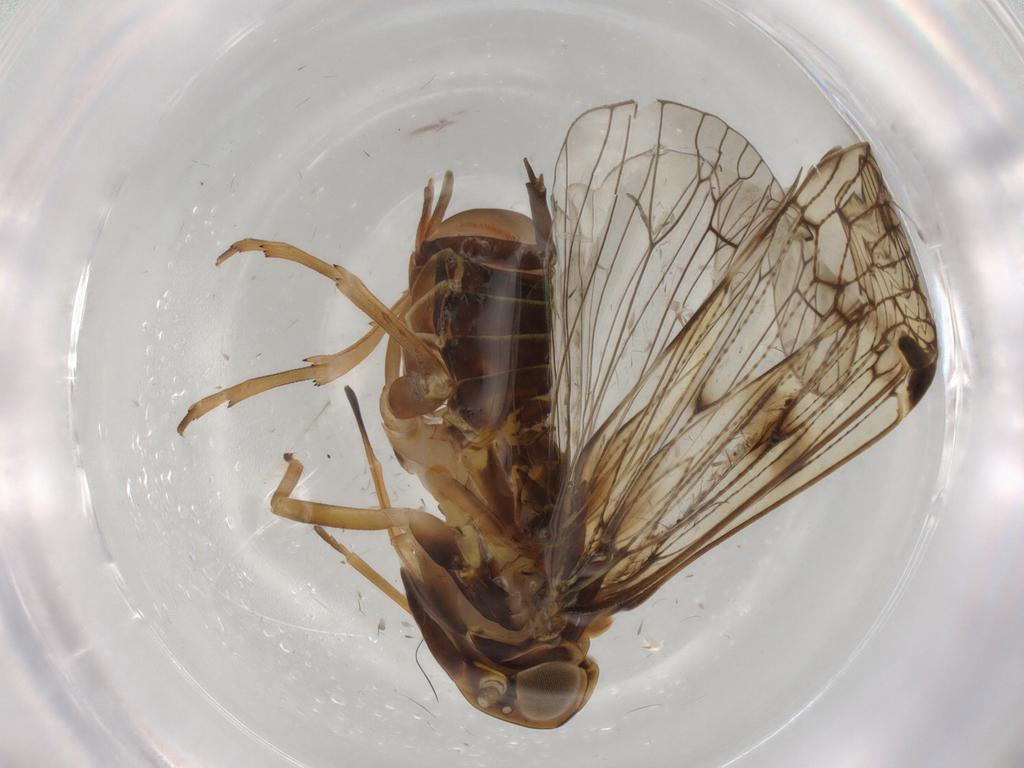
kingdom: Animalia
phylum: Arthropoda
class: Insecta
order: Hemiptera
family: Cixiidae
